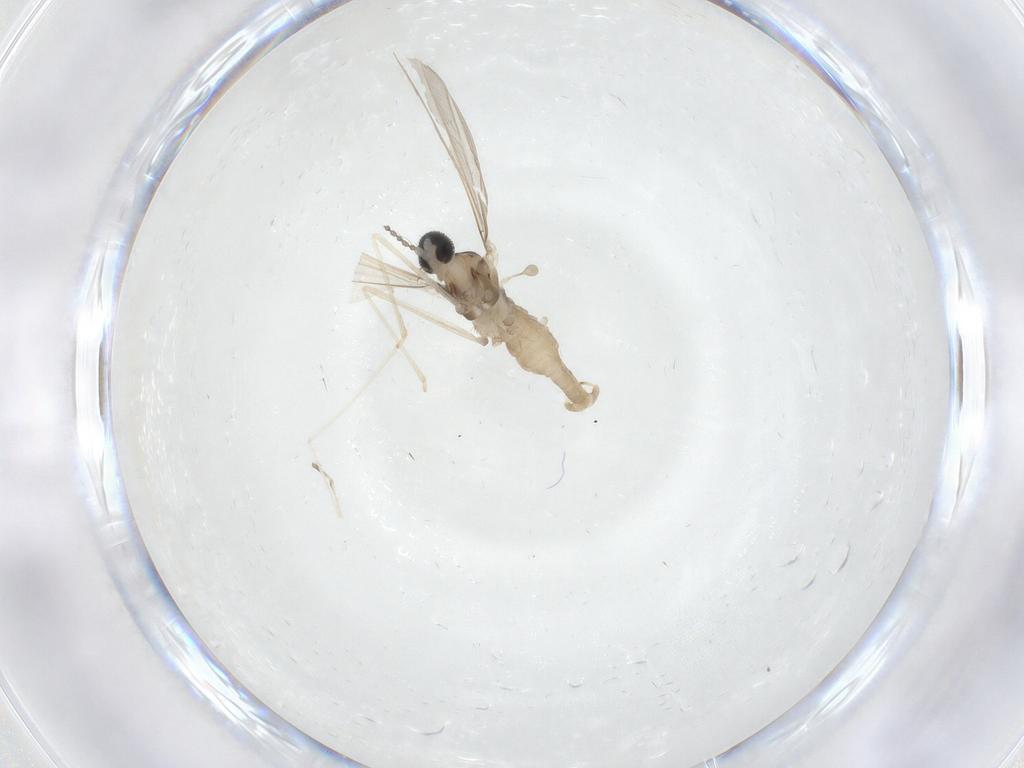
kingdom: Animalia
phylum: Arthropoda
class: Insecta
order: Diptera
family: Cecidomyiidae
